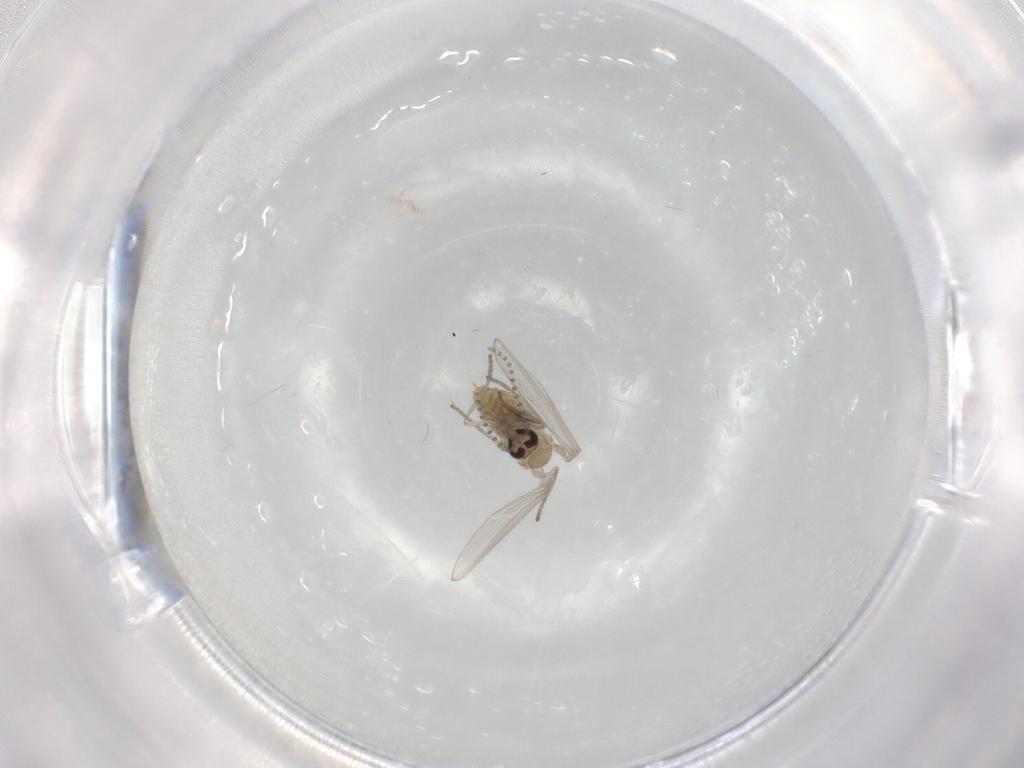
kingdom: Animalia
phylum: Arthropoda
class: Insecta
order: Diptera
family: Psychodidae
